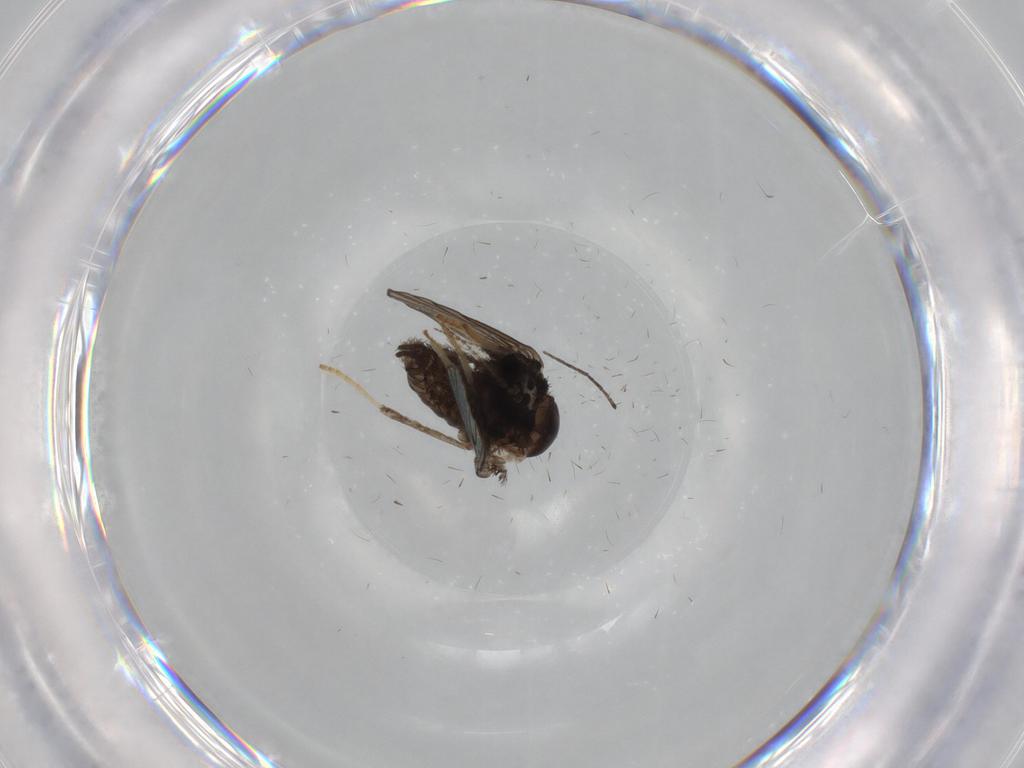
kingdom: Animalia
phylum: Arthropoda
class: Insecta
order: Diptera
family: Psychodidae
